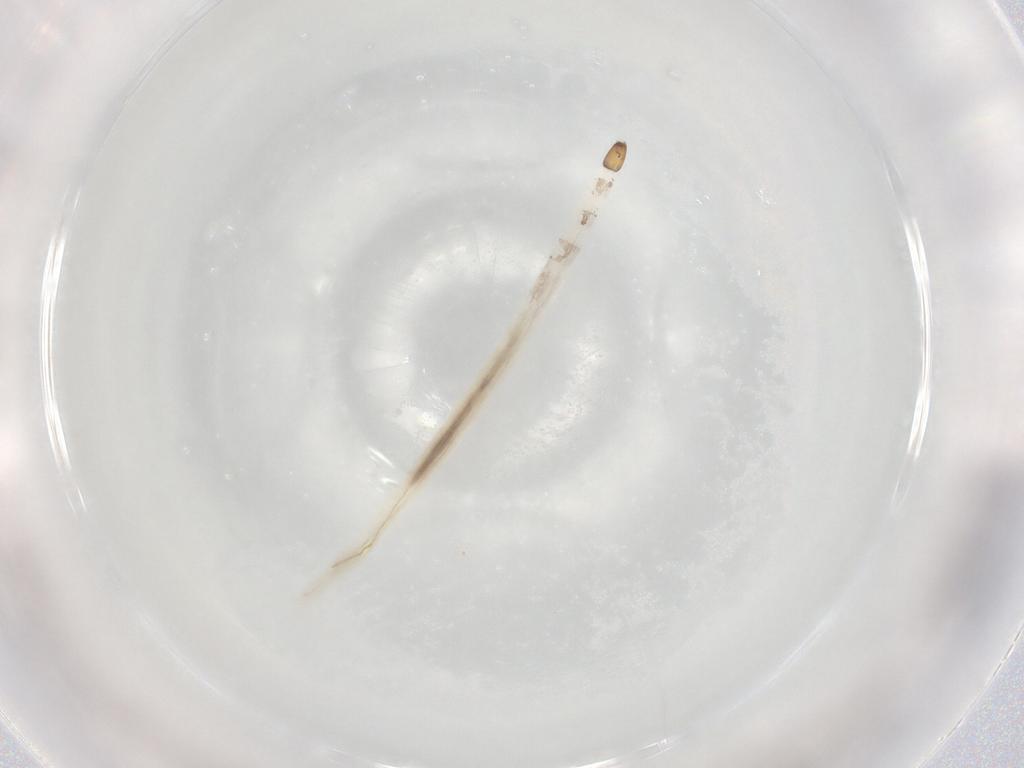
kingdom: Animalia
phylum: Arthropoda
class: Insecta
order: Diptera
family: Ceratopogonidae
